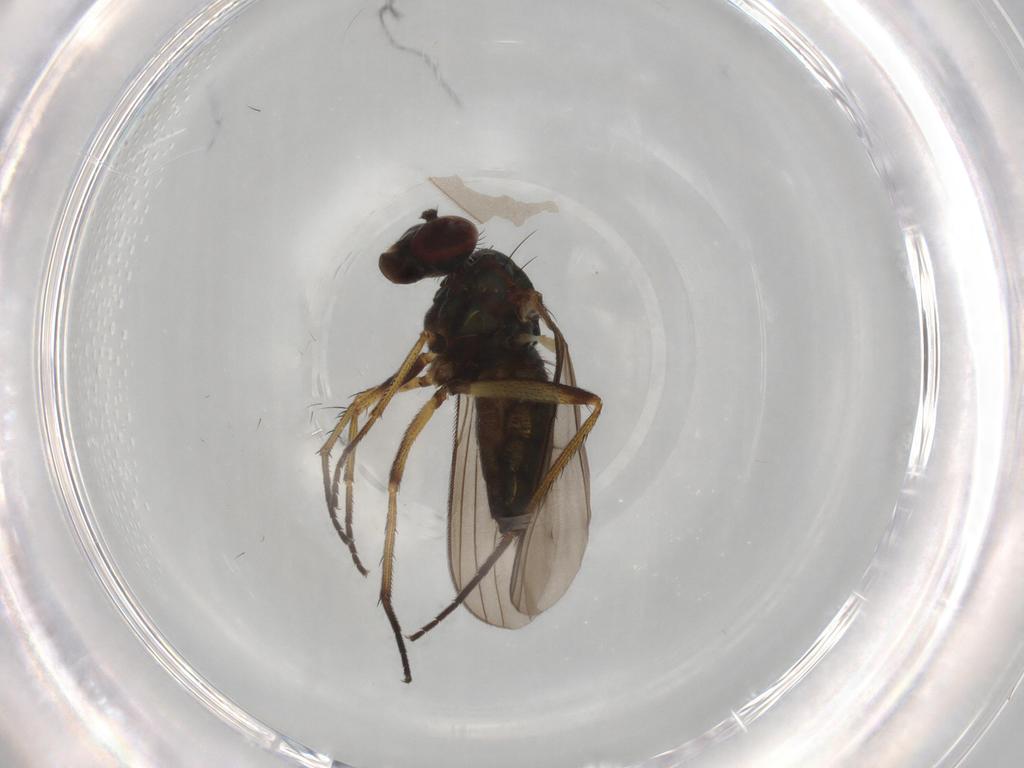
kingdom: Animalia
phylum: Arthropoda
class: Insecta
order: Diptera
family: Dolichopodidae
